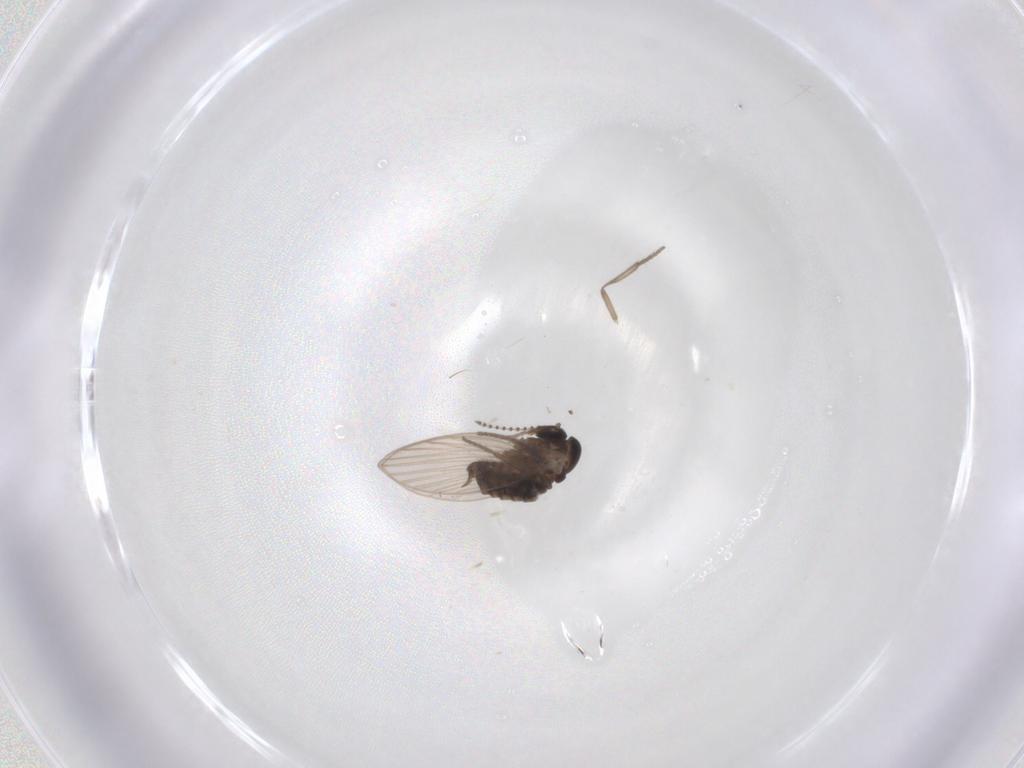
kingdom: Animalia
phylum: Arthropoda
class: Insecta
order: Diptera
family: Psychodidae
